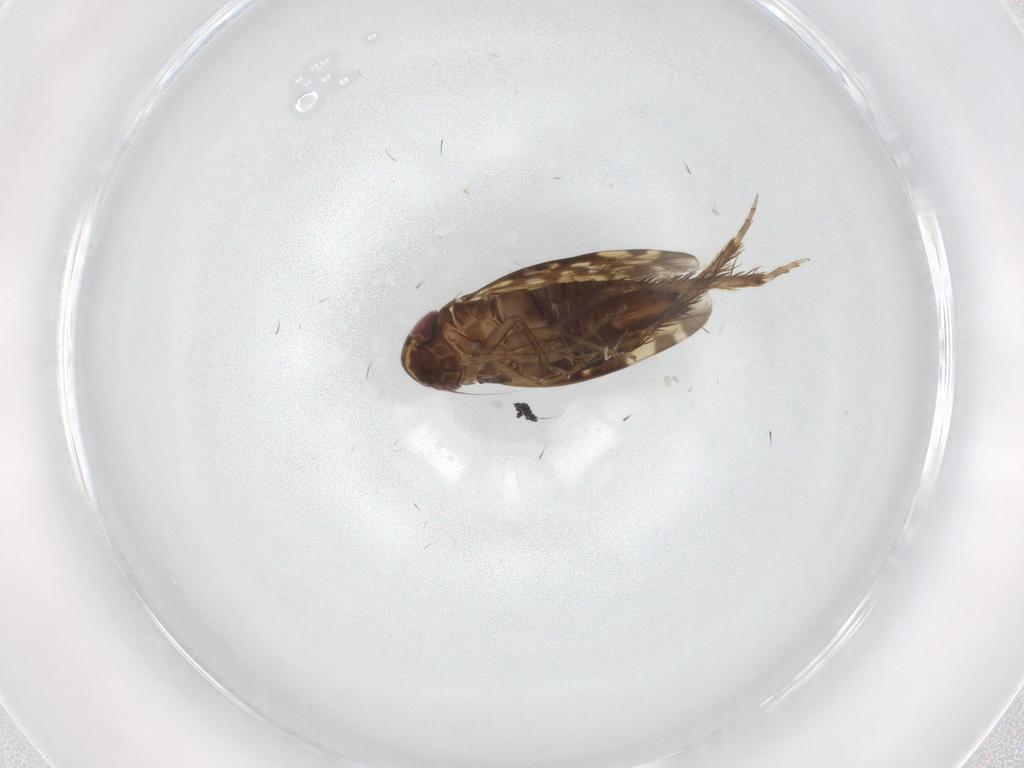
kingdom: Animalia
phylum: Arthropoda
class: Insecta
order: Hemiptera
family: Cicadellidae
